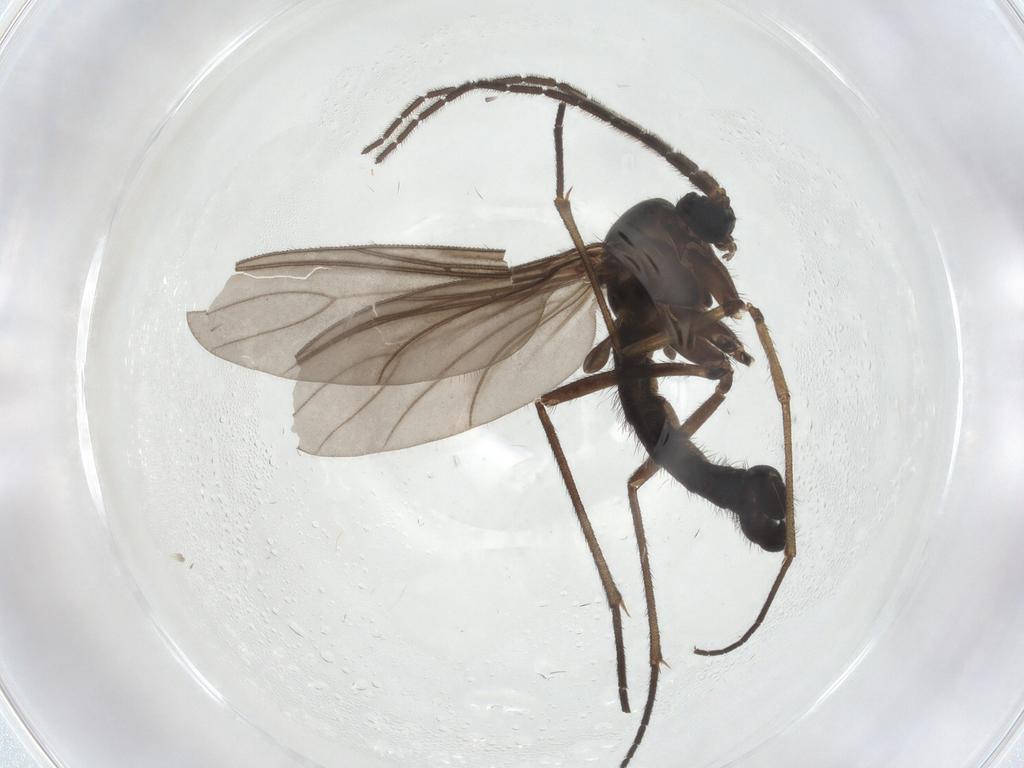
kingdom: Animalia
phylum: Arthropoda
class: Insecta
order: Diptera
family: Sciaridae
